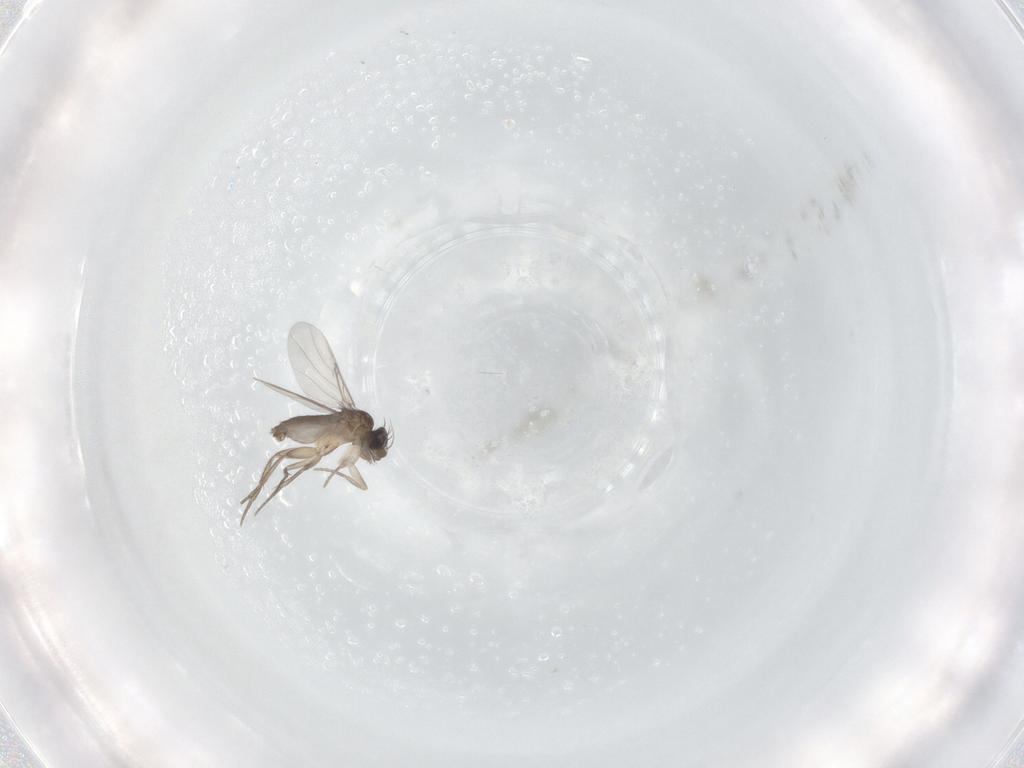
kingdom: Animalia
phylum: Arthropoda
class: Insecta
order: Diptera
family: Phoridae
